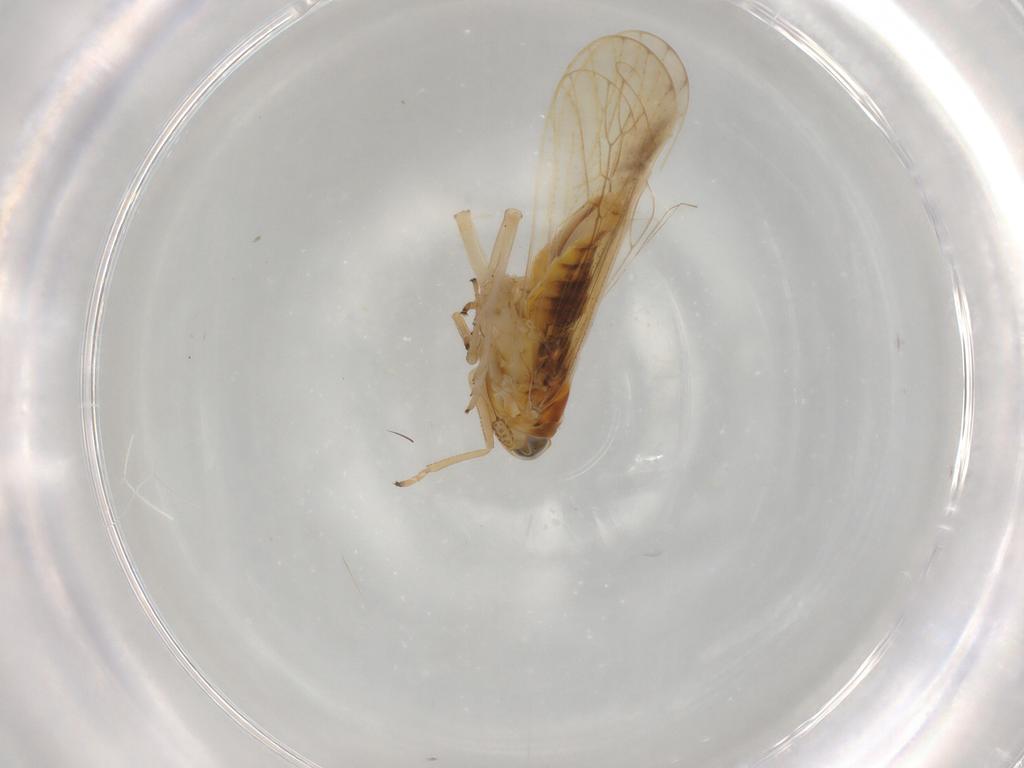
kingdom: Animalia
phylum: Arthropoda
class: Insecta
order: Hemiptera
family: Delphacidae
